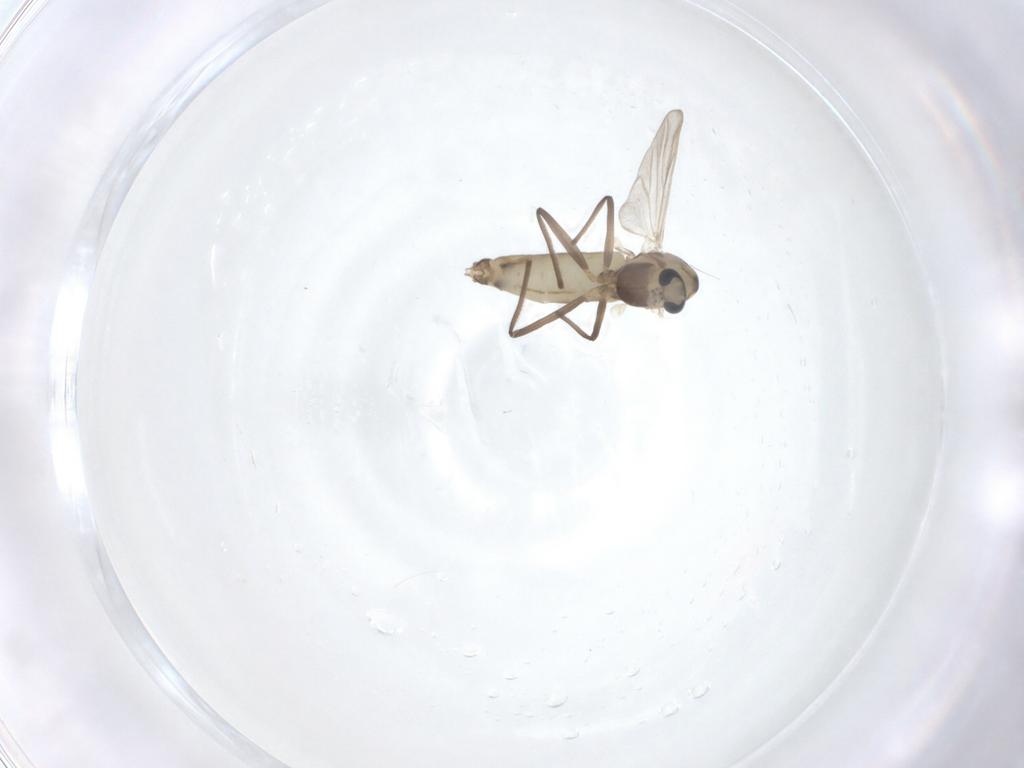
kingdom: Animalia
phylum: Arthropoda
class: Insecta
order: Diptera
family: Chironomidae
